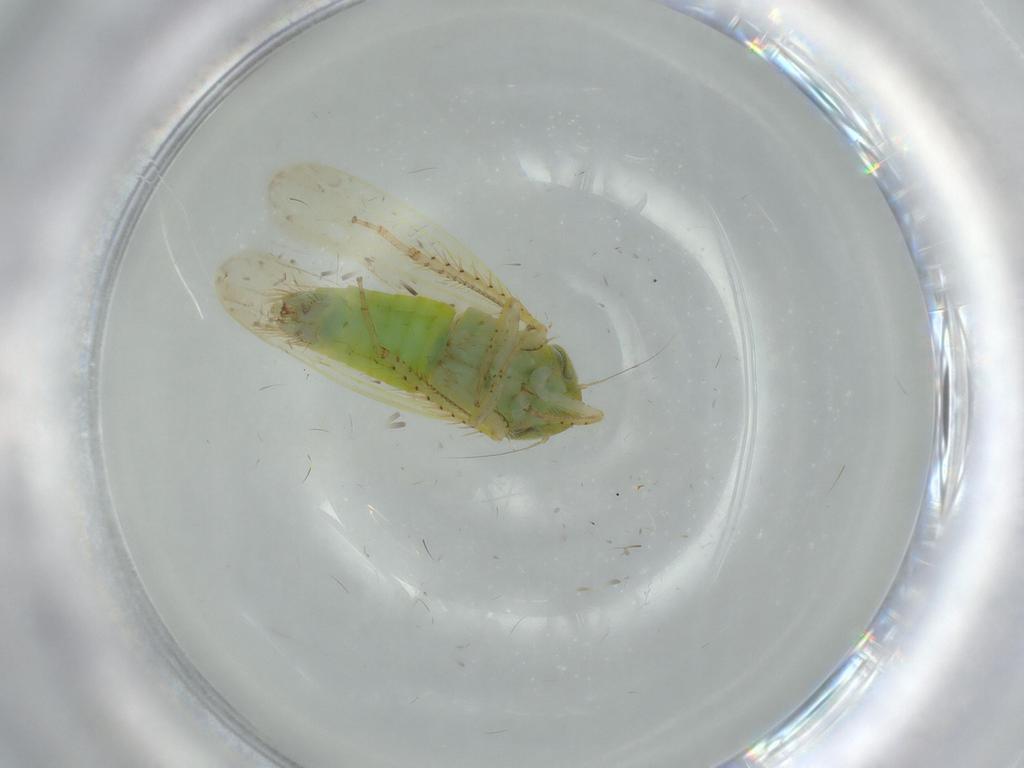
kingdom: Animalia
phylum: Arthropoda
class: Insecta
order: Hemiptera
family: Cicadellidae
